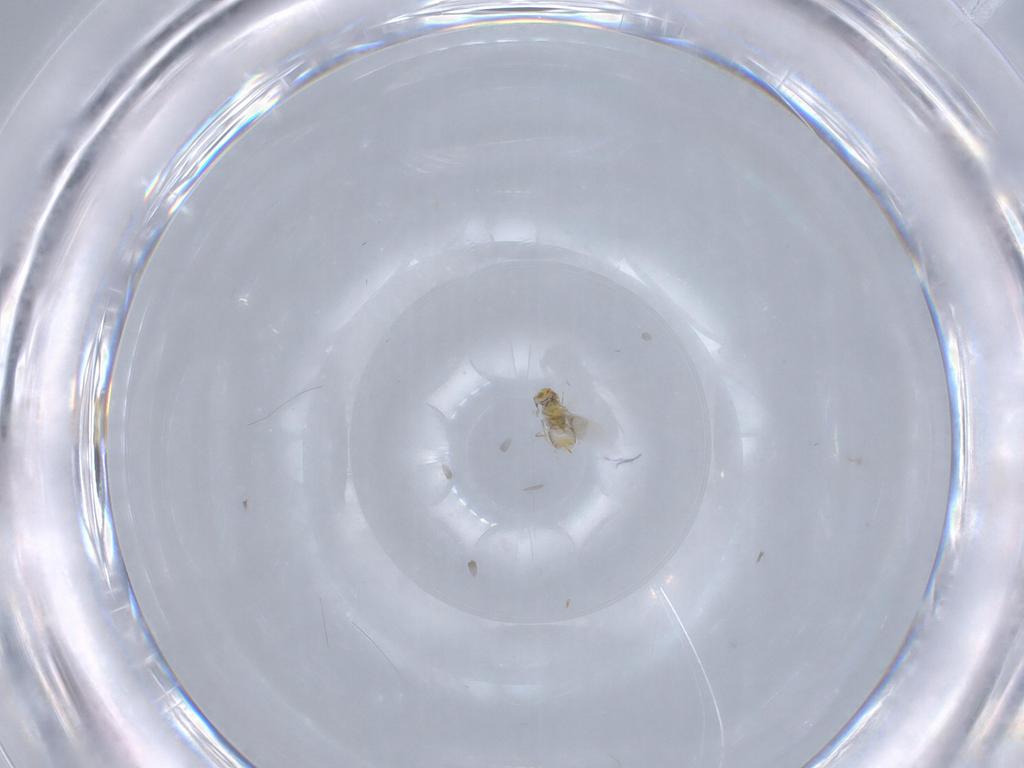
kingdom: Animalia
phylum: Arthropoda
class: Insecta
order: Hymenoptera
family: Aphelinidae
